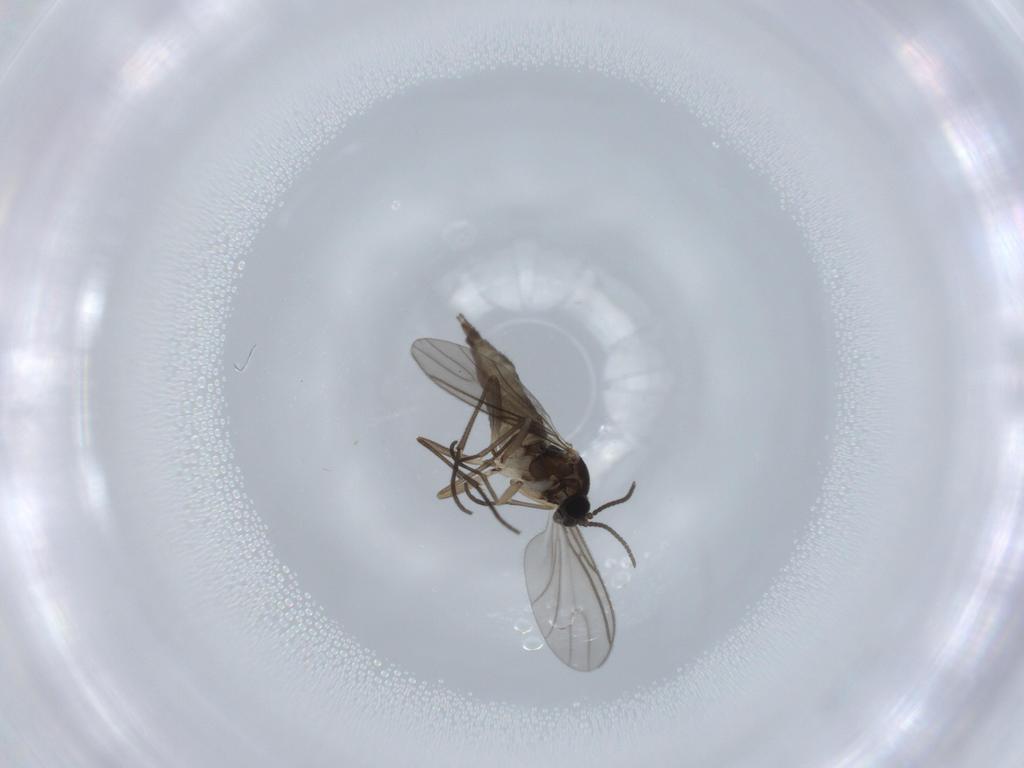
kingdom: Animalia
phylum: Arthropoda
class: Insecta
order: Diptera
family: Sciaridae
